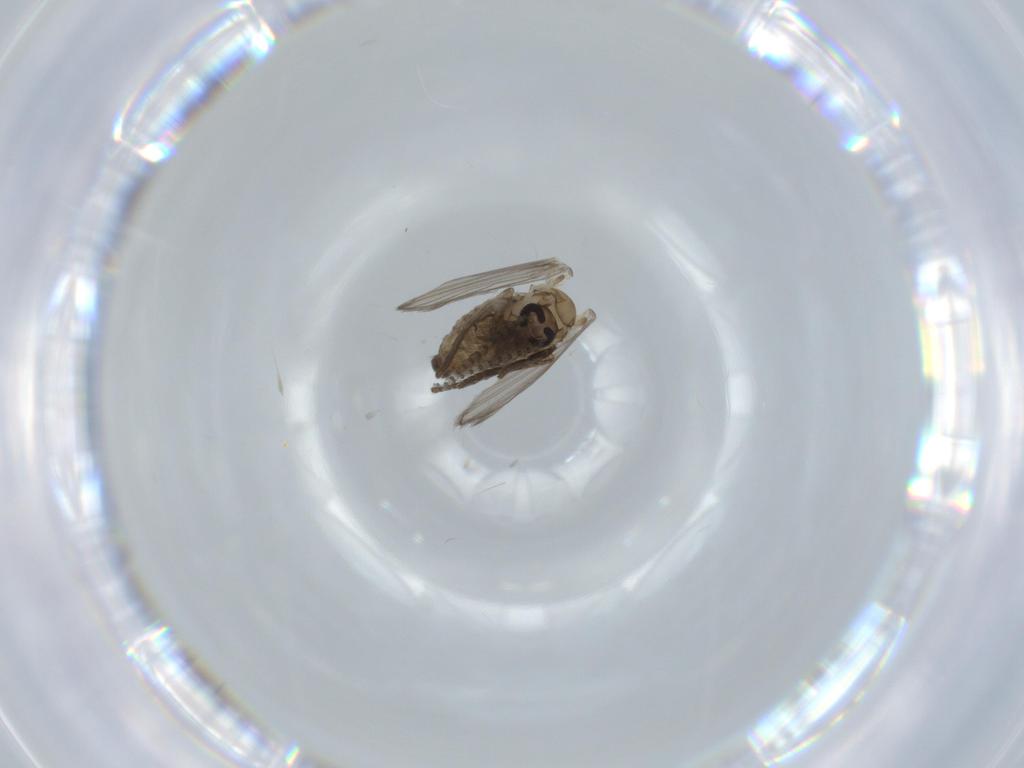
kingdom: Animalia
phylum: Arthropoda
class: Insecta
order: Diptera
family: Psychodidae
